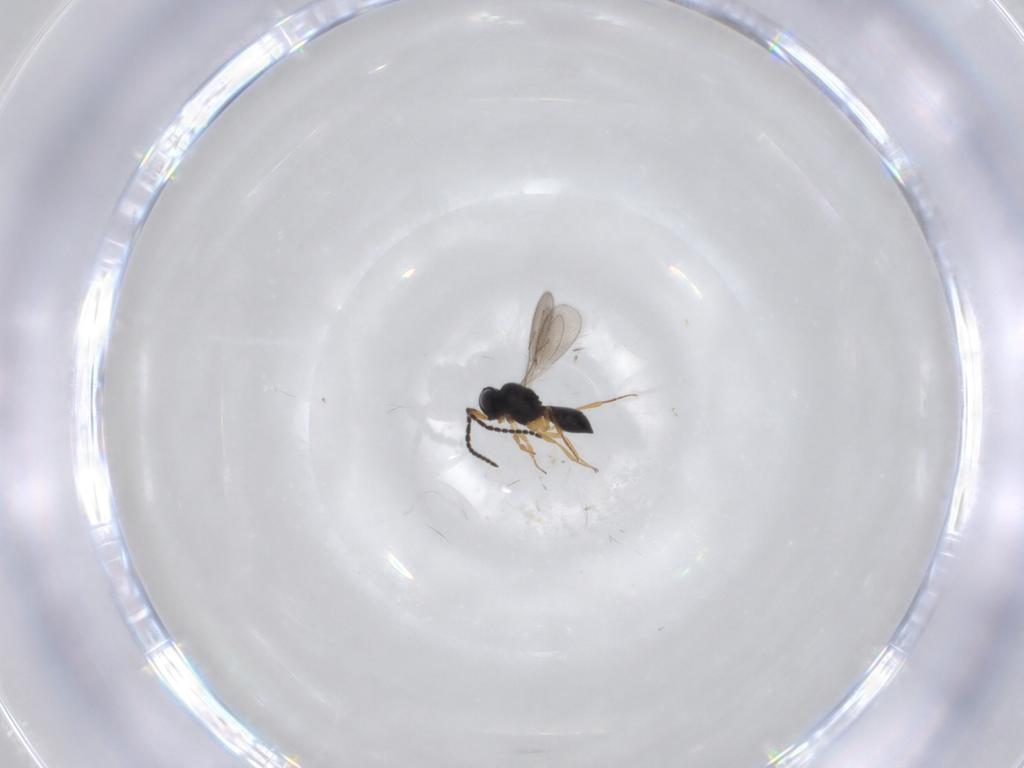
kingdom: Animalia
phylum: Arthropoda
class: Insecta
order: Hymenoptera
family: Scelionidae
